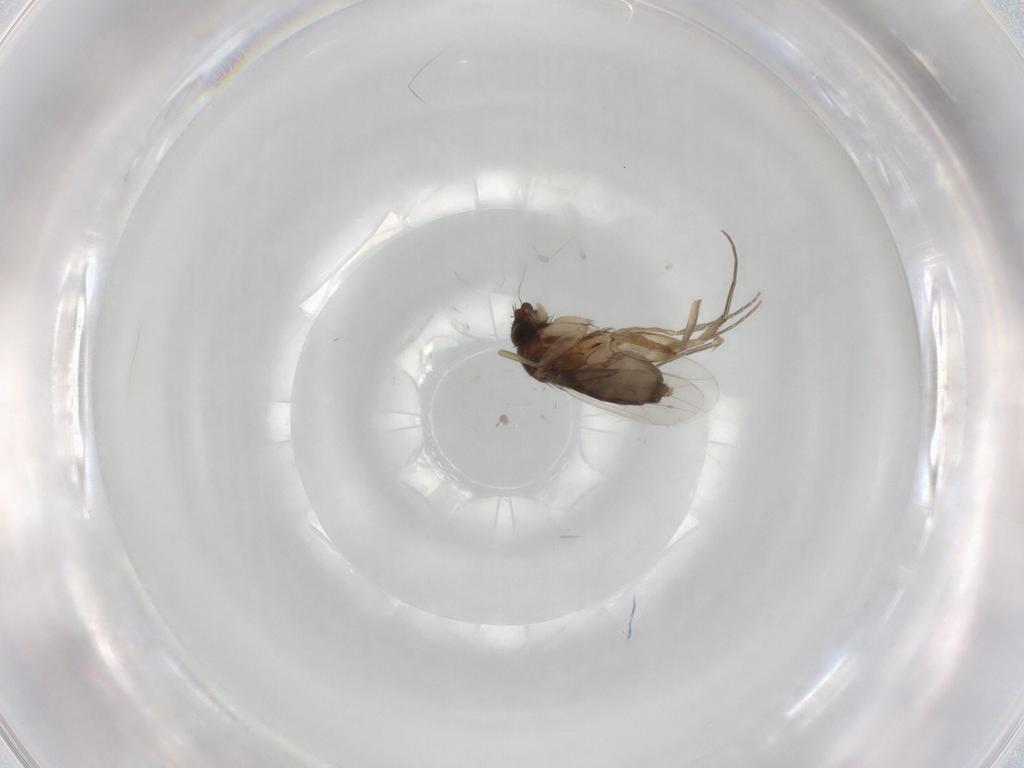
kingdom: Animalia
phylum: Arthropoda
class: Insecta
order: Diptera
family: Phoridae
